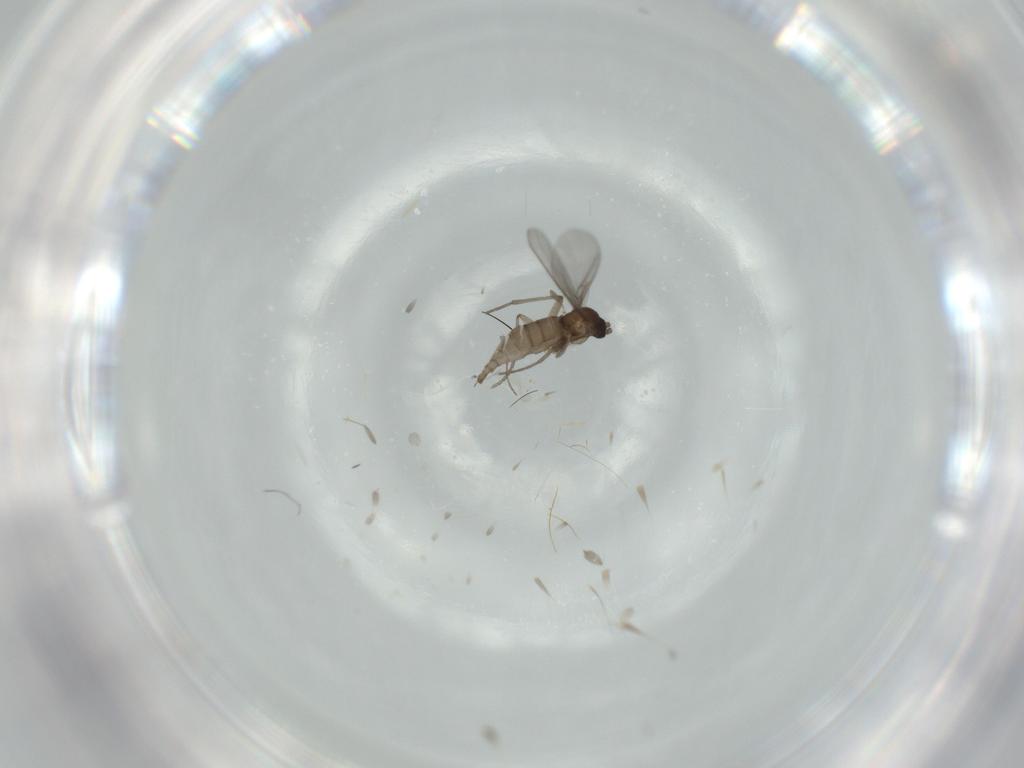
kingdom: Animalia
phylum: Arthropoda
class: Insecta
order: Diptera
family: Sciaridae
